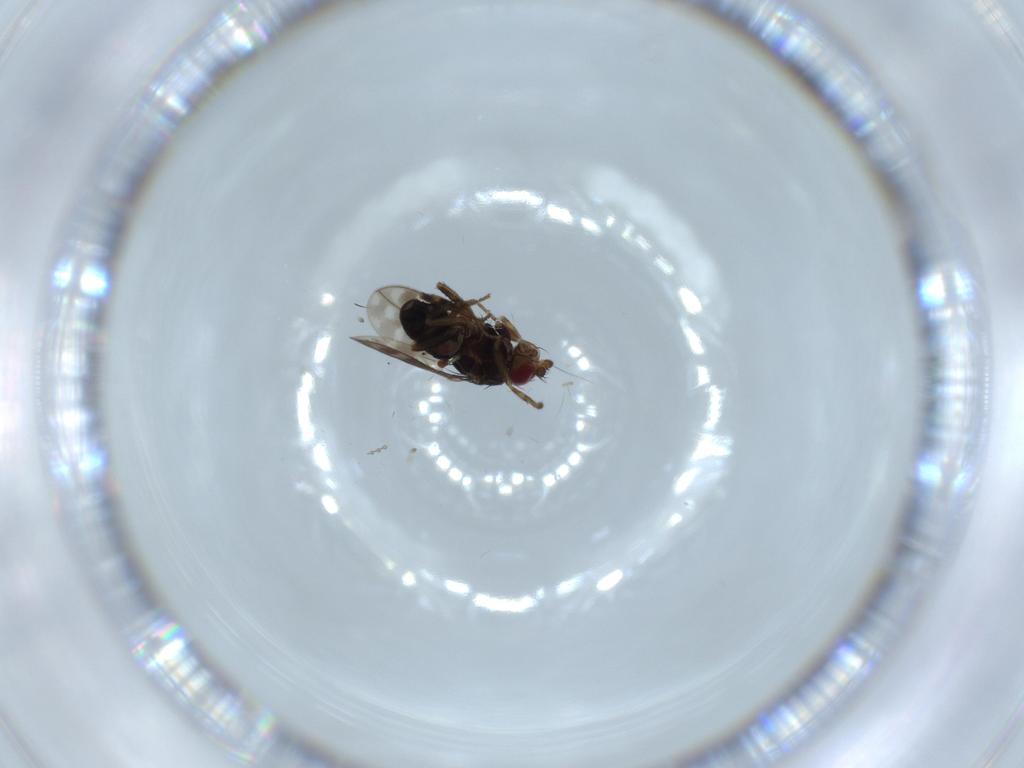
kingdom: Animalia
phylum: Arthropoda
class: Insecta
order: Diptera
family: Sphaeroceridae
